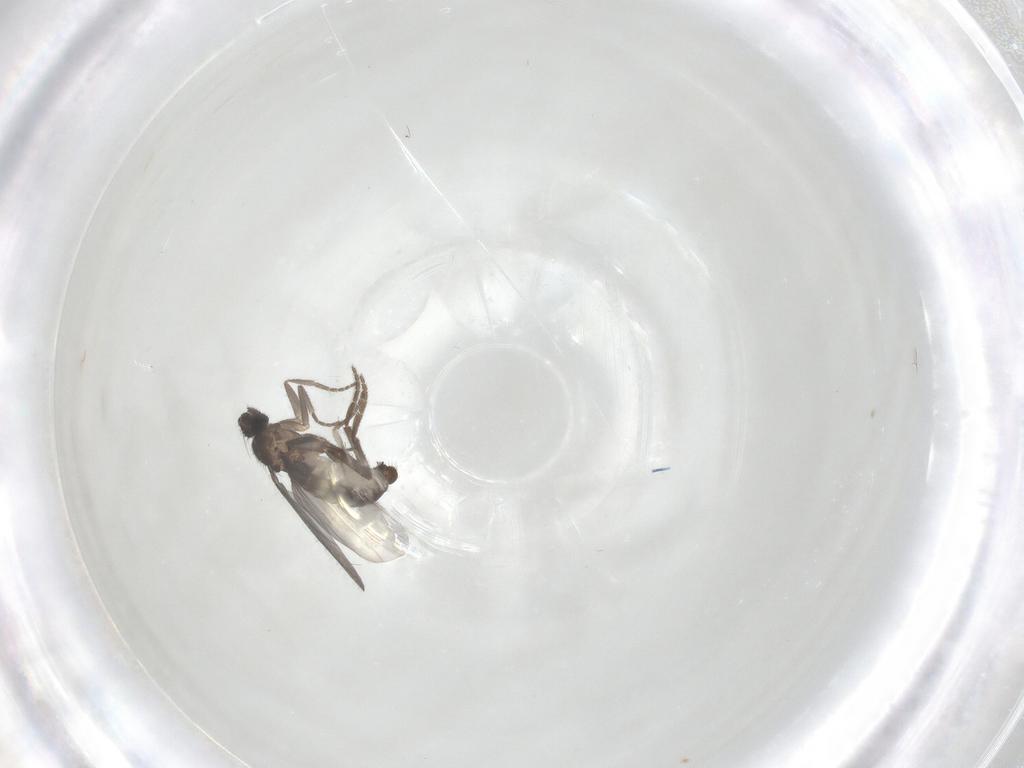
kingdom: Animalia
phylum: Arthropoda
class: Insecta
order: Diptera
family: Phoridae
